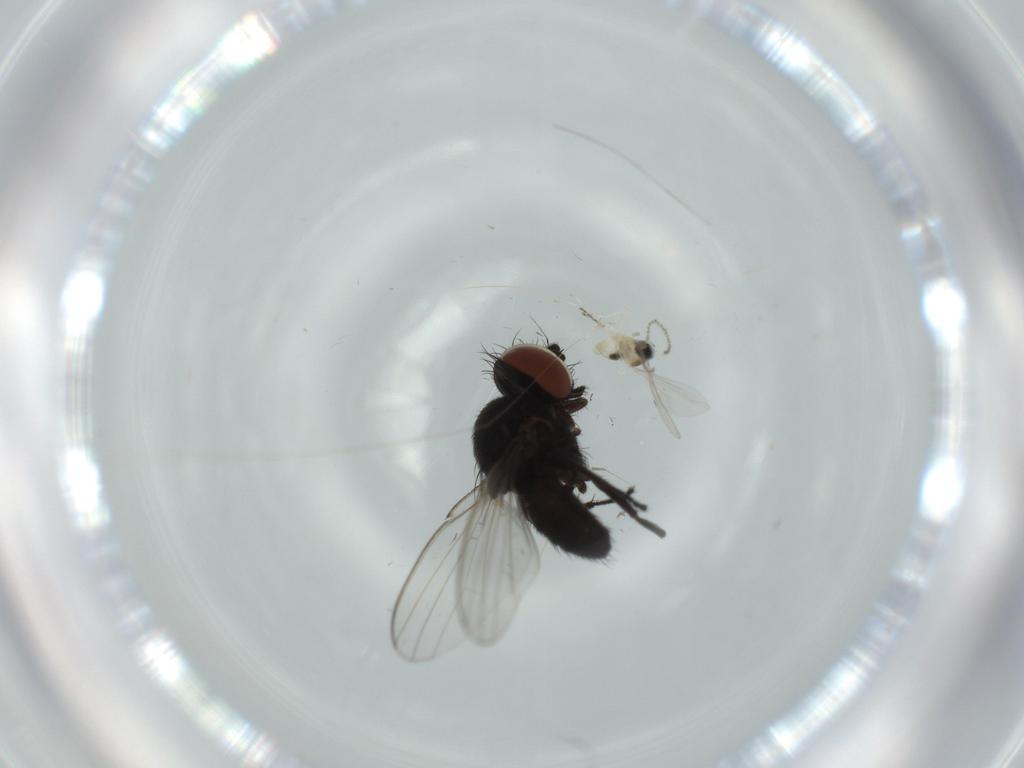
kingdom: Animalia
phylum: Arthropoda
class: Insecta
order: Diptera
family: Milichiidae
